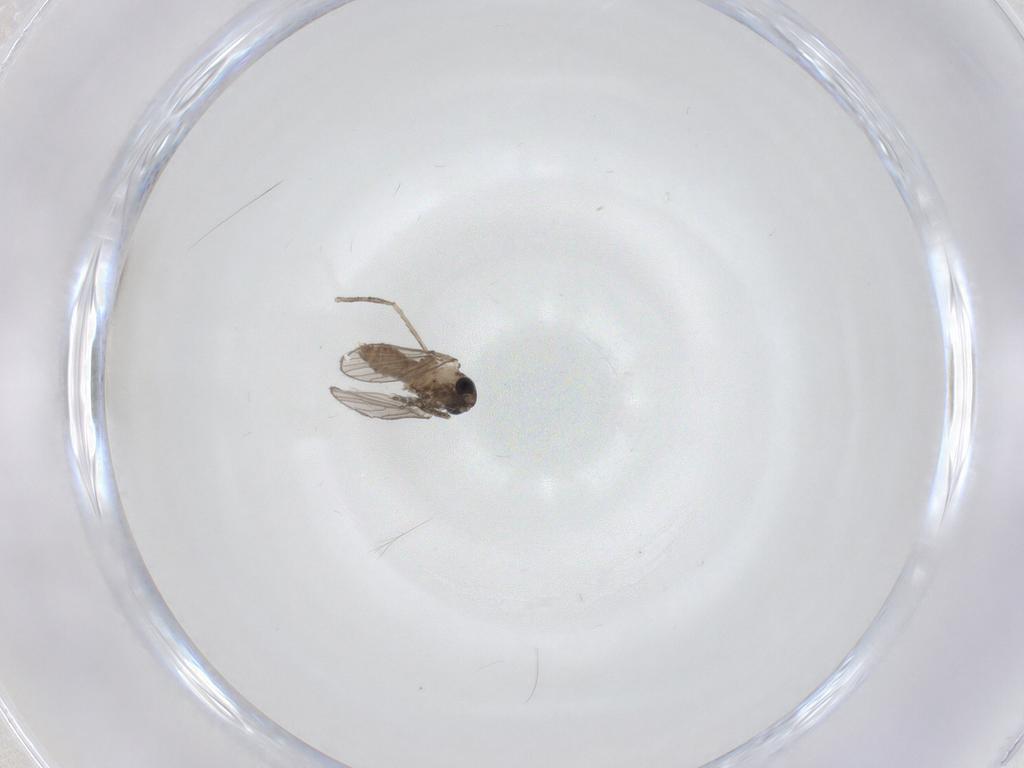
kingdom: Animalia
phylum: Arthropoda
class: Insecta
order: Diptera
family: Psychodidae
